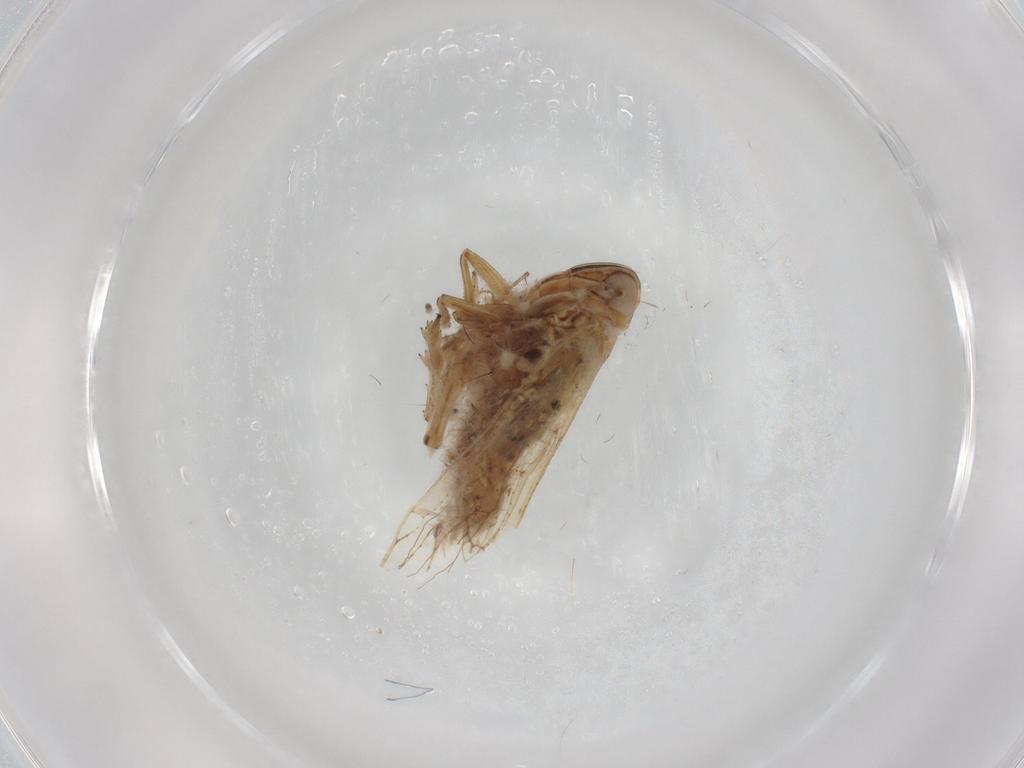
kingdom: Animalia
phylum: Arthropoda
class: Insecta
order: Hemiptera
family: Delphacidae
